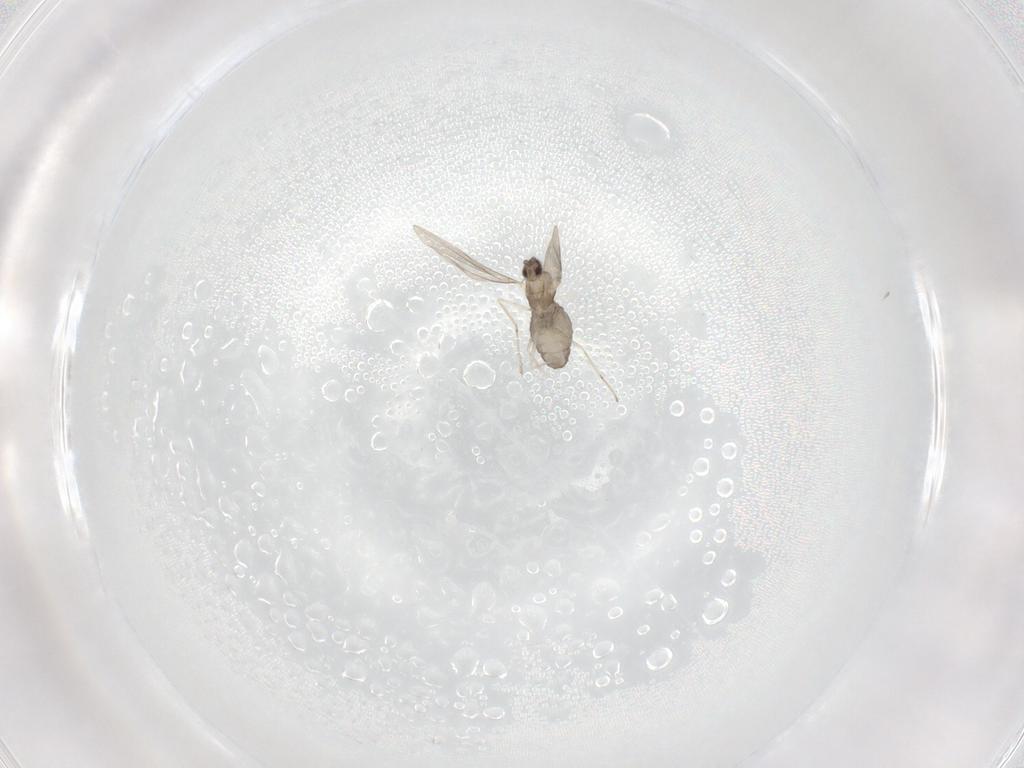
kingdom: Animalia
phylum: Arthropoda
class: Insecta
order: Diptera
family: Cecidomyiidae
